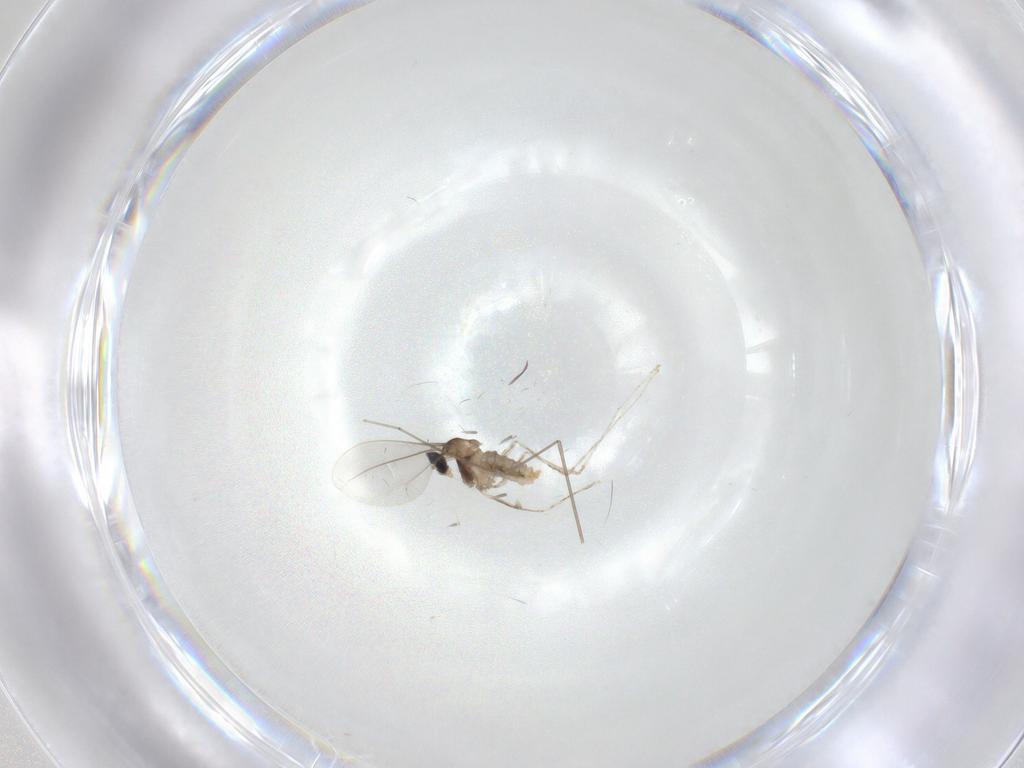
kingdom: Animalia
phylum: Arthropoda
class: Insecta
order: Diptera
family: Cecidomyiidae
